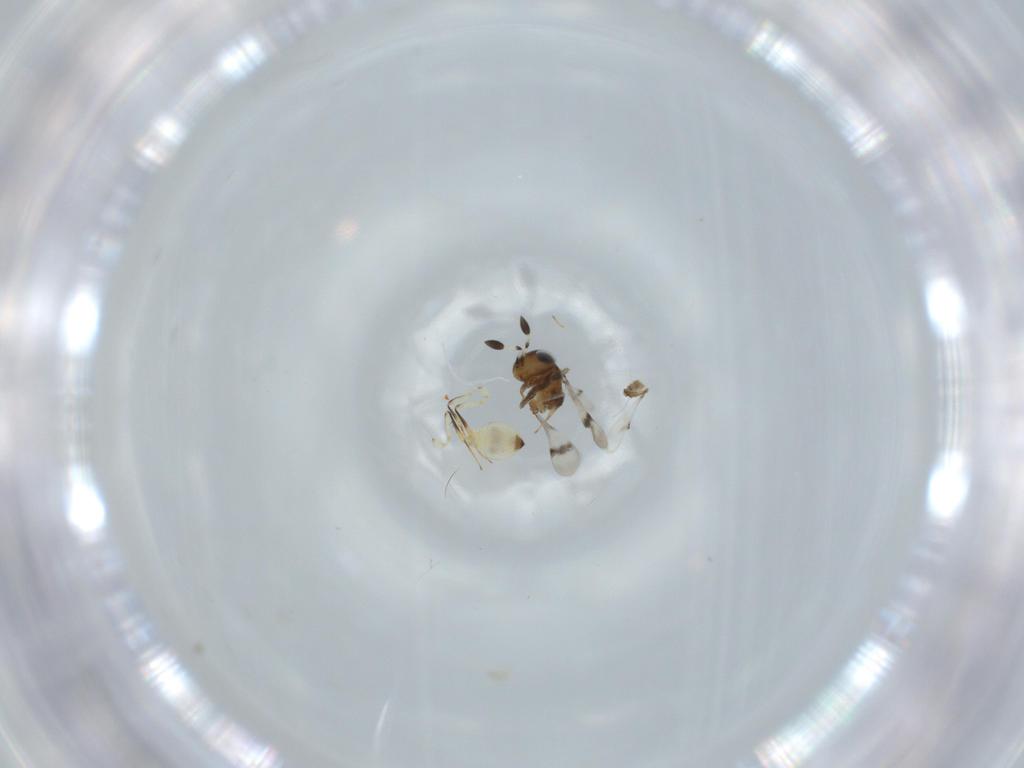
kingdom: Animalia
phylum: Arthropoda
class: Arachnida
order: Araneae
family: Pholcidae
